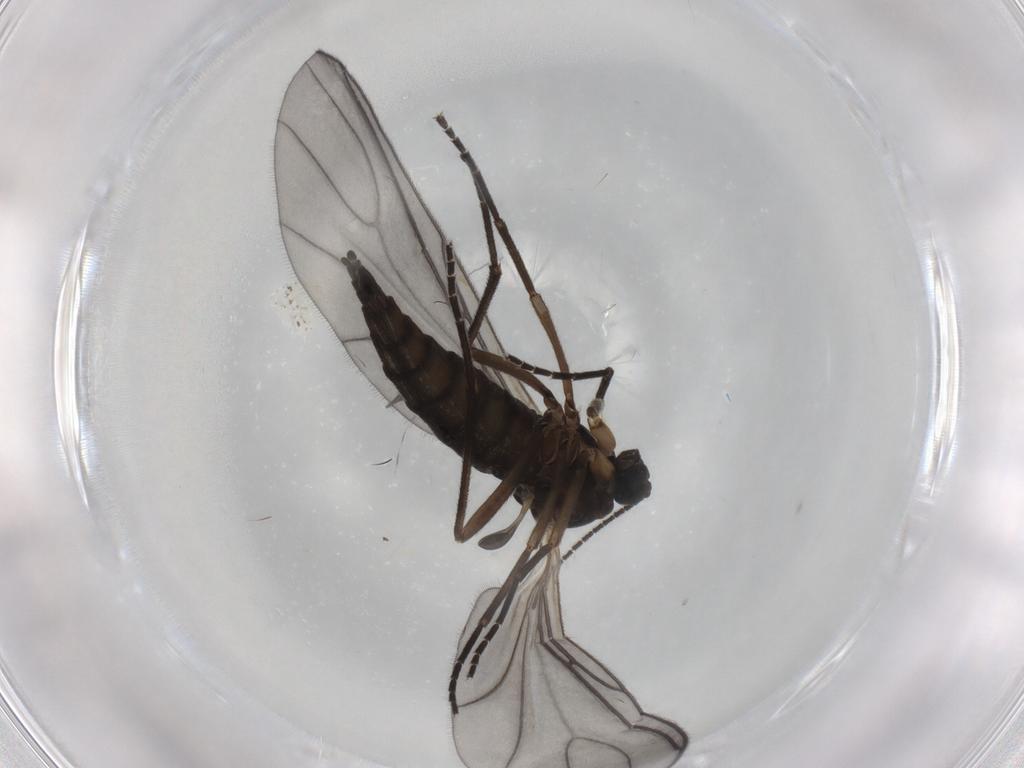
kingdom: Animalia
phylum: Arthropoda
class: Insecta
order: Diptera
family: Sciaridae
